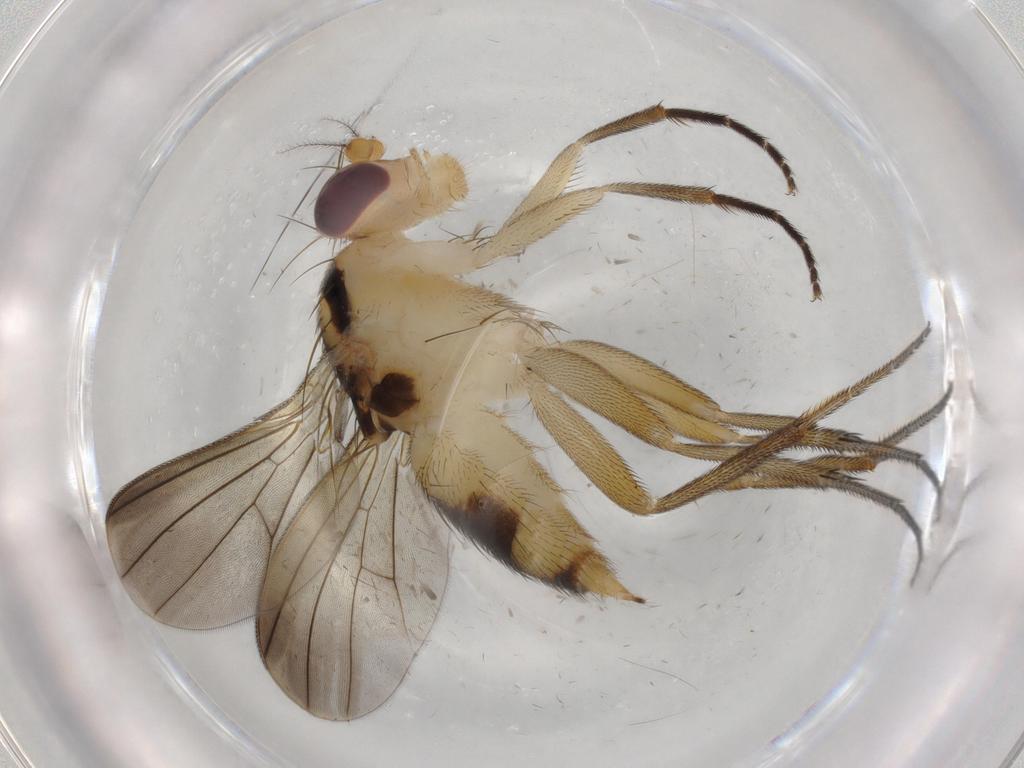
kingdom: Animalia
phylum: Arthropoda
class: Insecta
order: Diptera
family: Clusiidae
